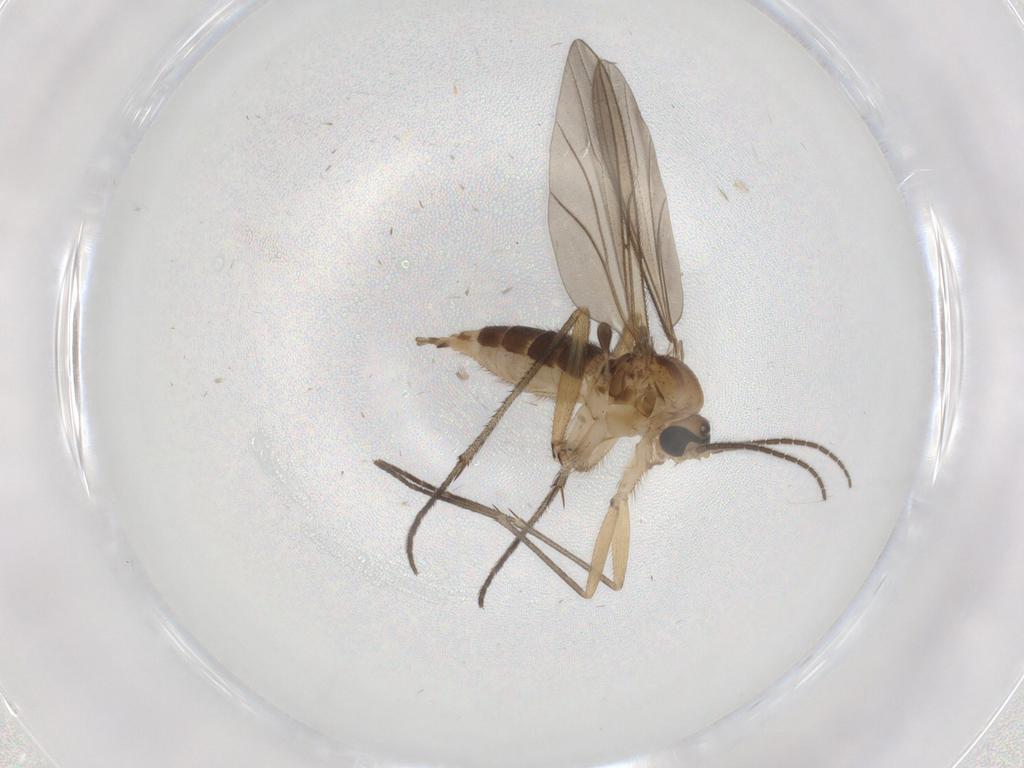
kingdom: Animalia
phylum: Arthropoda
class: Insecta
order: Diptera
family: Sciaridae
